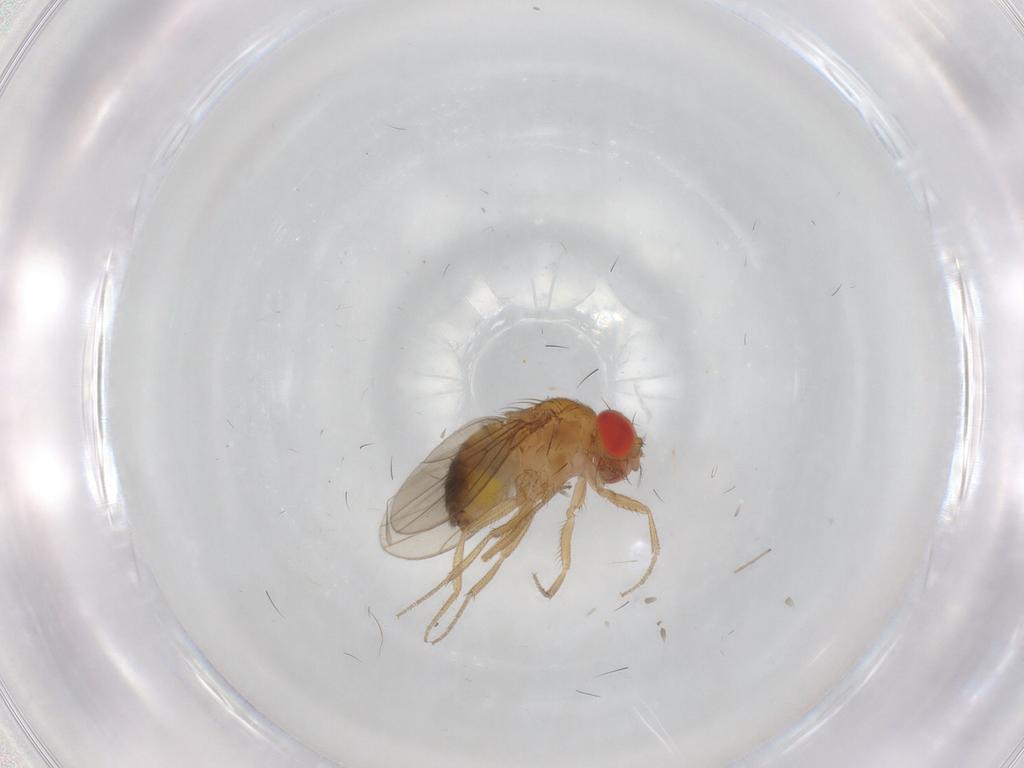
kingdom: Animalia
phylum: Arthropoda
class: Insecta
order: Diptera
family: Drosophilidae
